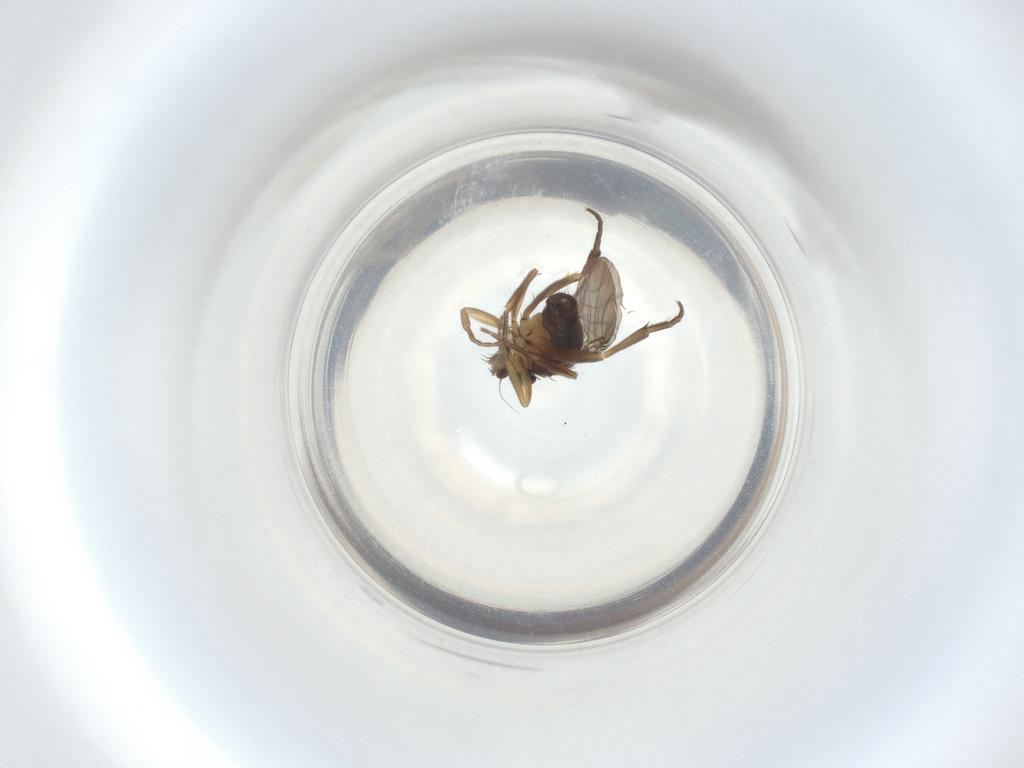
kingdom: Animalia
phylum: Arthropoda
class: Insecta
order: Diptera
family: Phoridae
